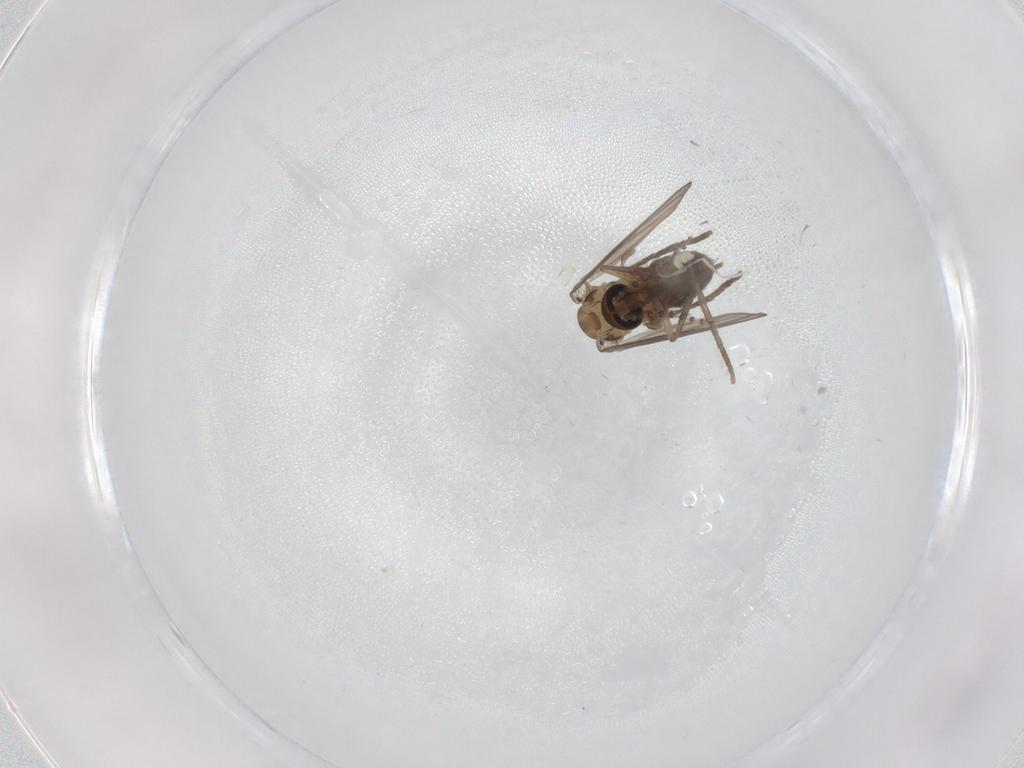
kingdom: Animalia
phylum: Arthropoda
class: Insecta
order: Diptera
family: Psychodidae
